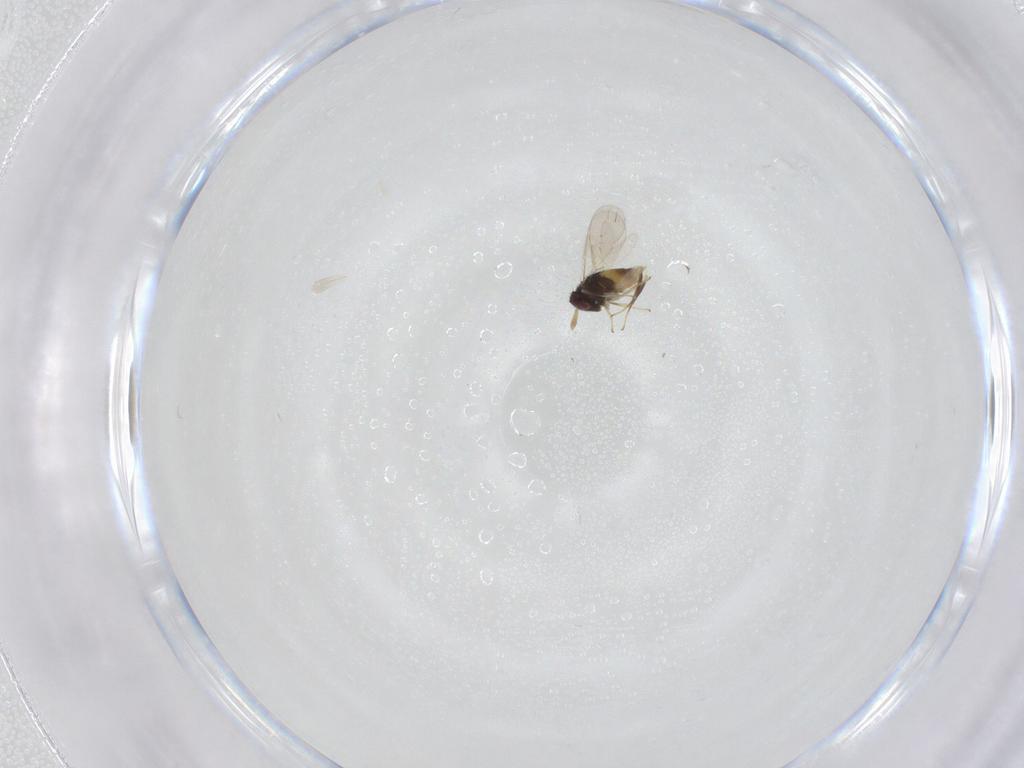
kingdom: Animalia
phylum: Arthropoda
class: Insecta
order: Hymenoptera
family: Aphelinidae
